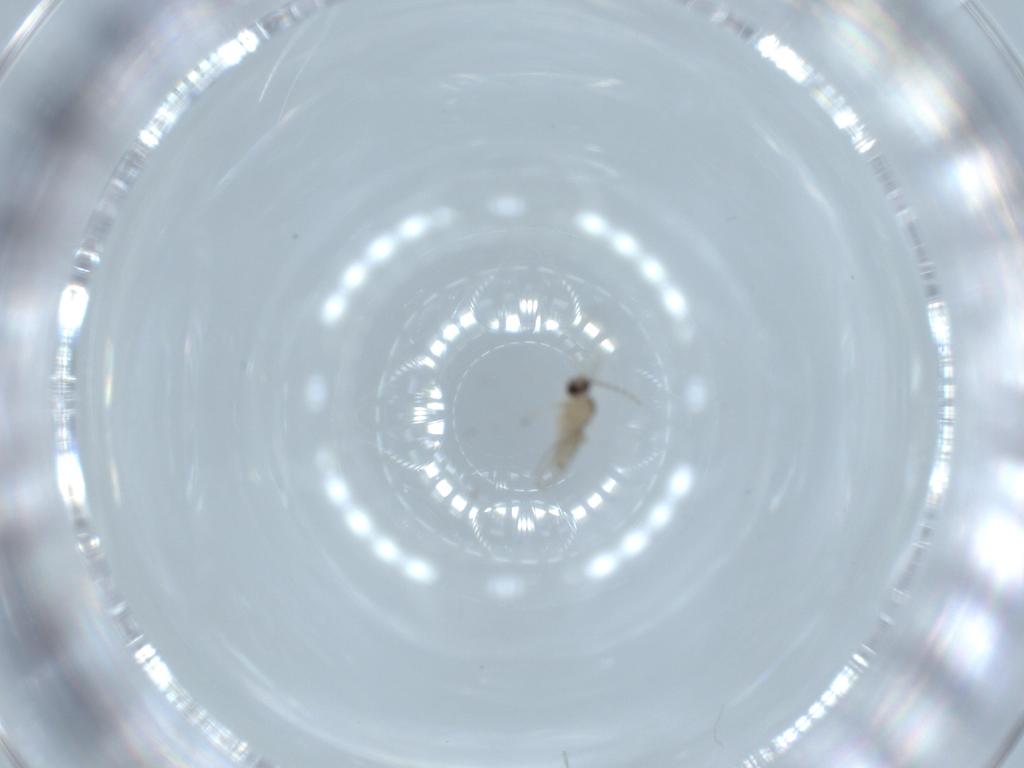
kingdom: Animalia
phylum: Arthropoda
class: Insecta
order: Diptera
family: Cecidomyiidae
